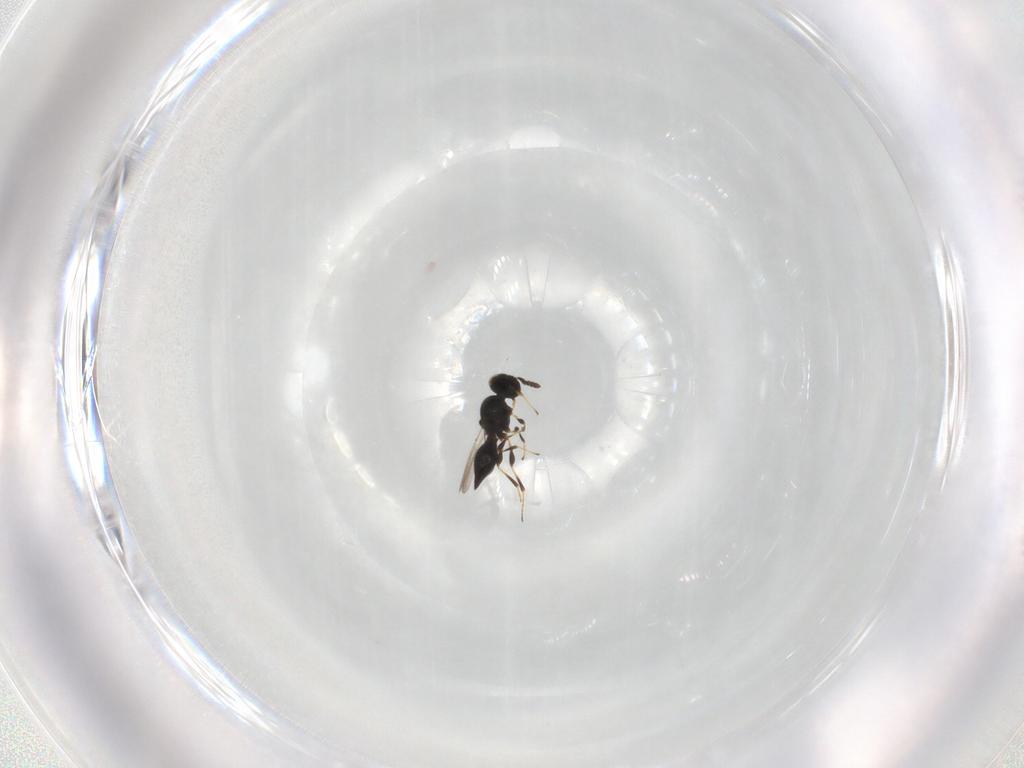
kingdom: Animalia
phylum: Arthropoda
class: Insecta
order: Hymenoptera
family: Platygastridae
